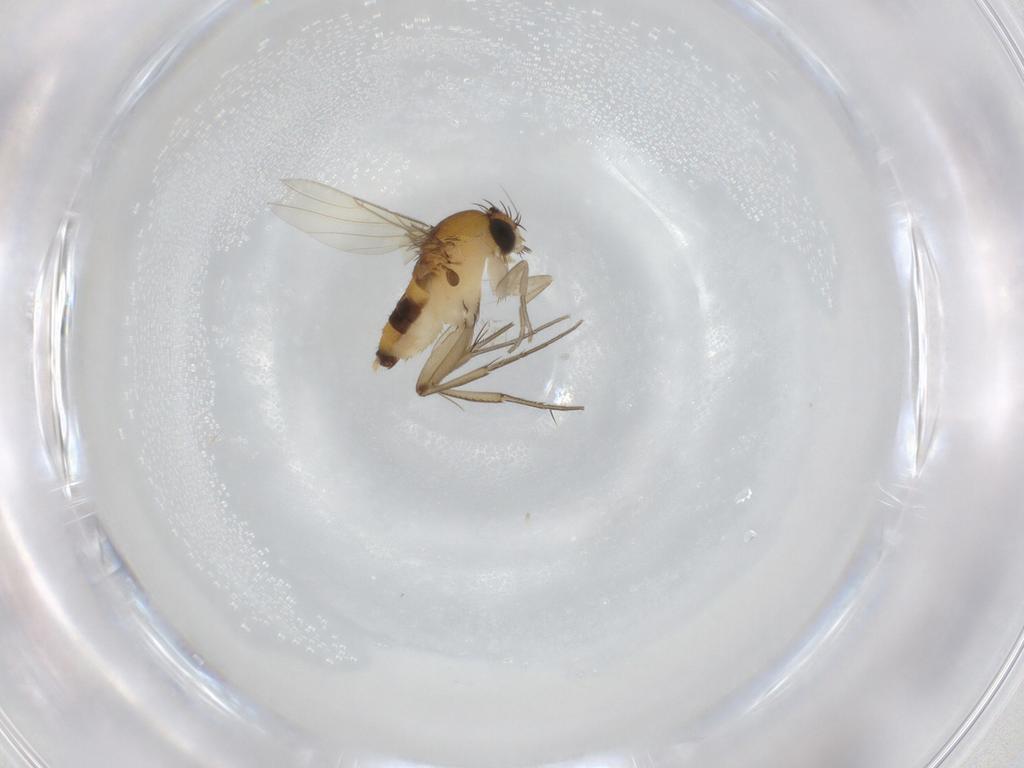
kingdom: Animalia
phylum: Arthropoda
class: Insecta
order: Diptera
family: Phoridae
